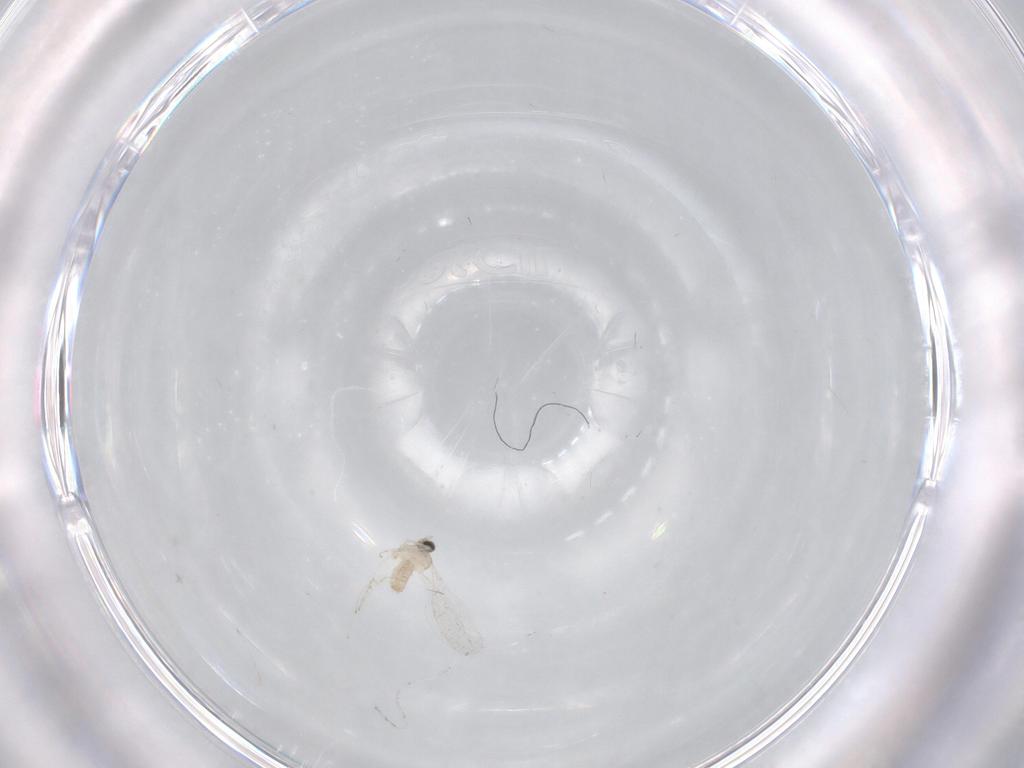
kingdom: Animalia
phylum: Arthropoda
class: Insecta
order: Diptera
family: Cecidomyiidae
